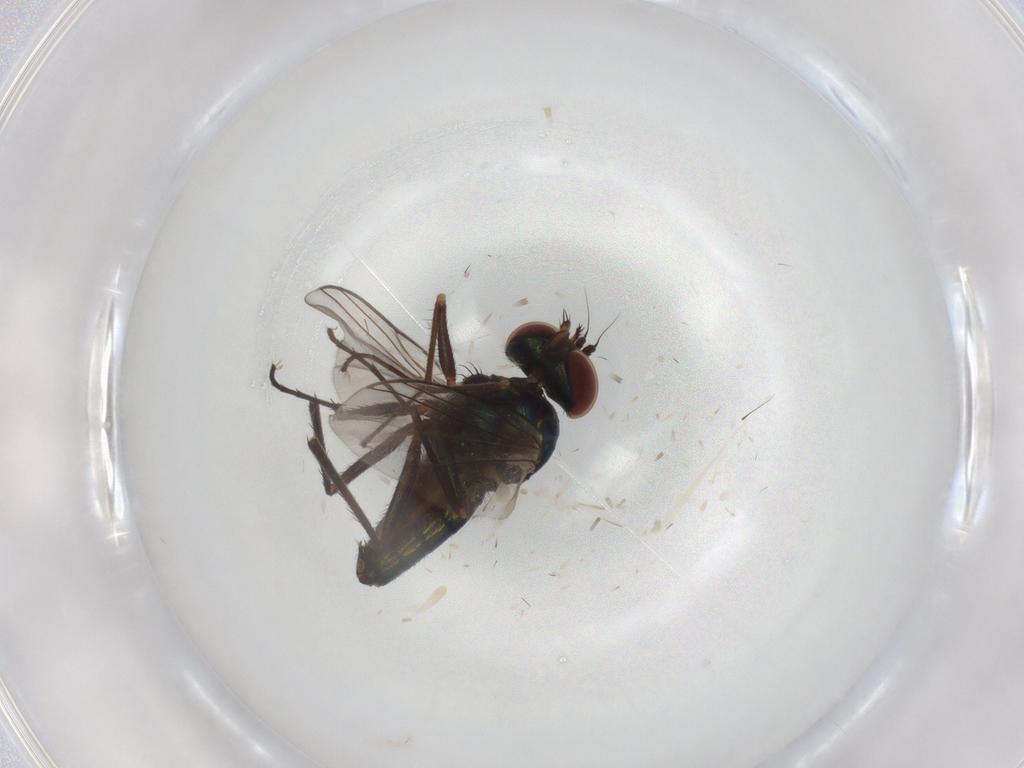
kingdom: Animalia
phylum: Arthropoda
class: Insecta
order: Diptera
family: Dolichopodidae
